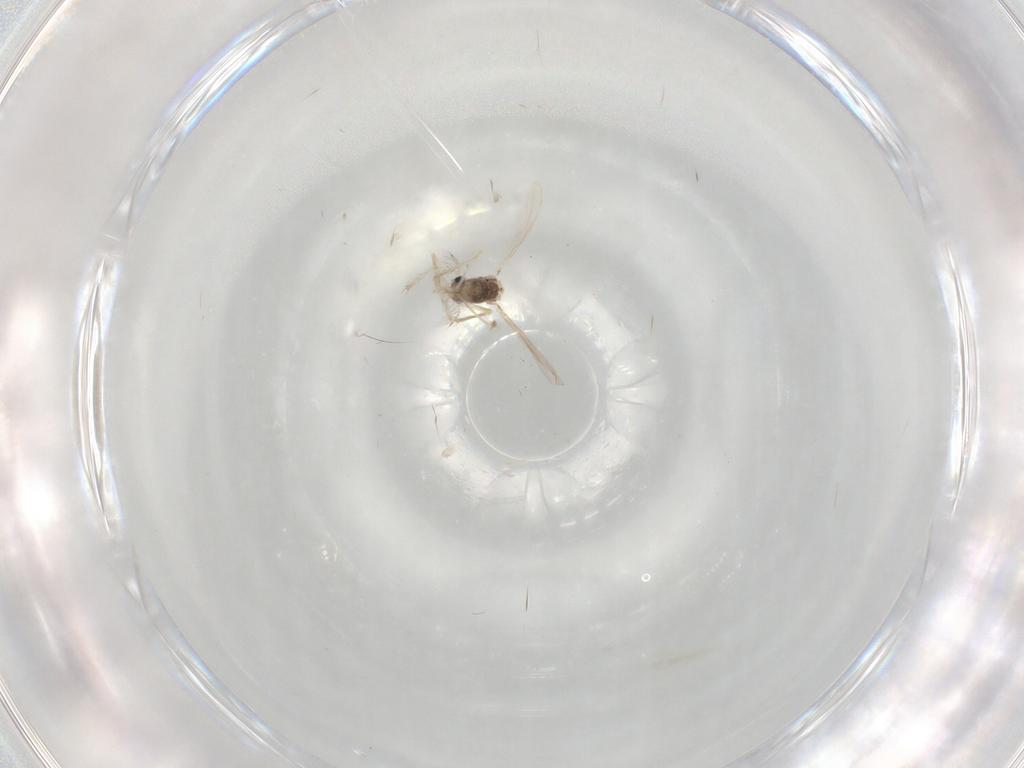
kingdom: Animalia
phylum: Arthropoda
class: Insecta
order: Diptera
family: Chironomidae
